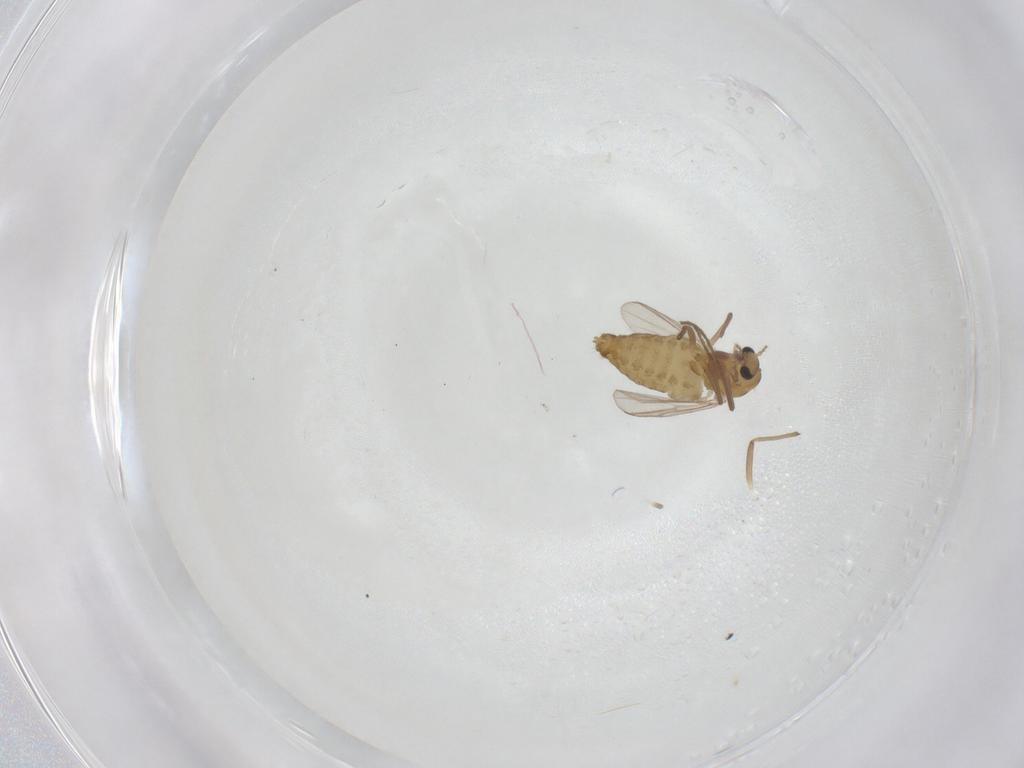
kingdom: Animalia
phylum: Arthropoda
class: Insecta
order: Diptera
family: Chironomidae
